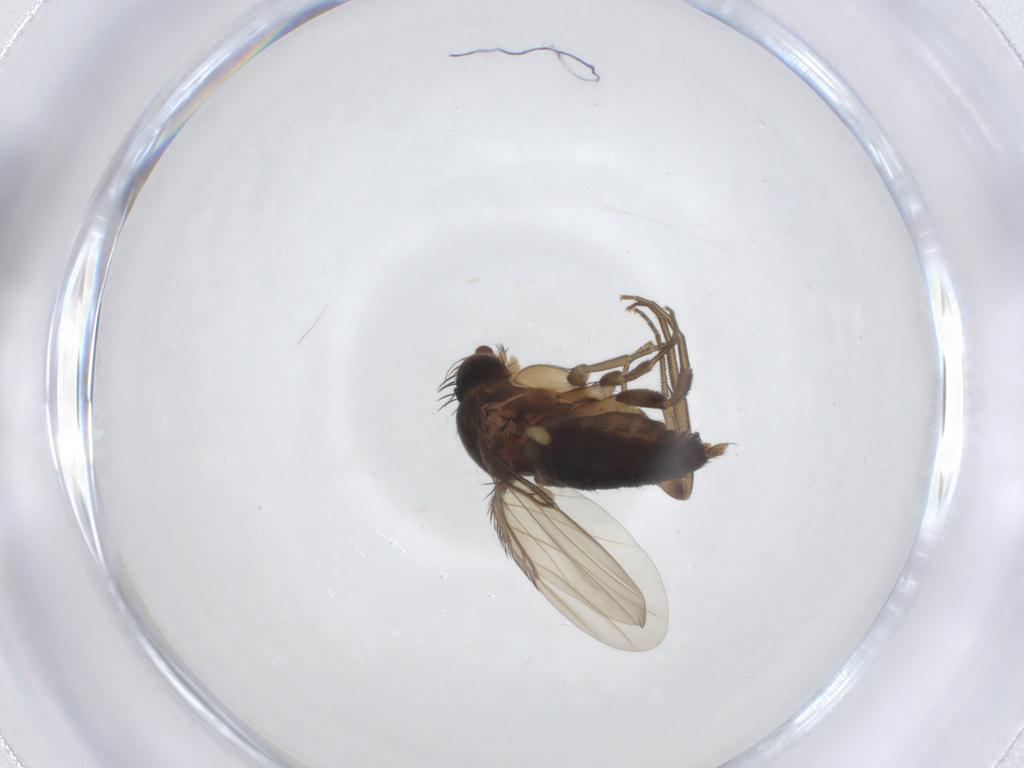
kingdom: Animalia
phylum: Arthropoda
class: Insecta
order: Diptera
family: Phoridae
